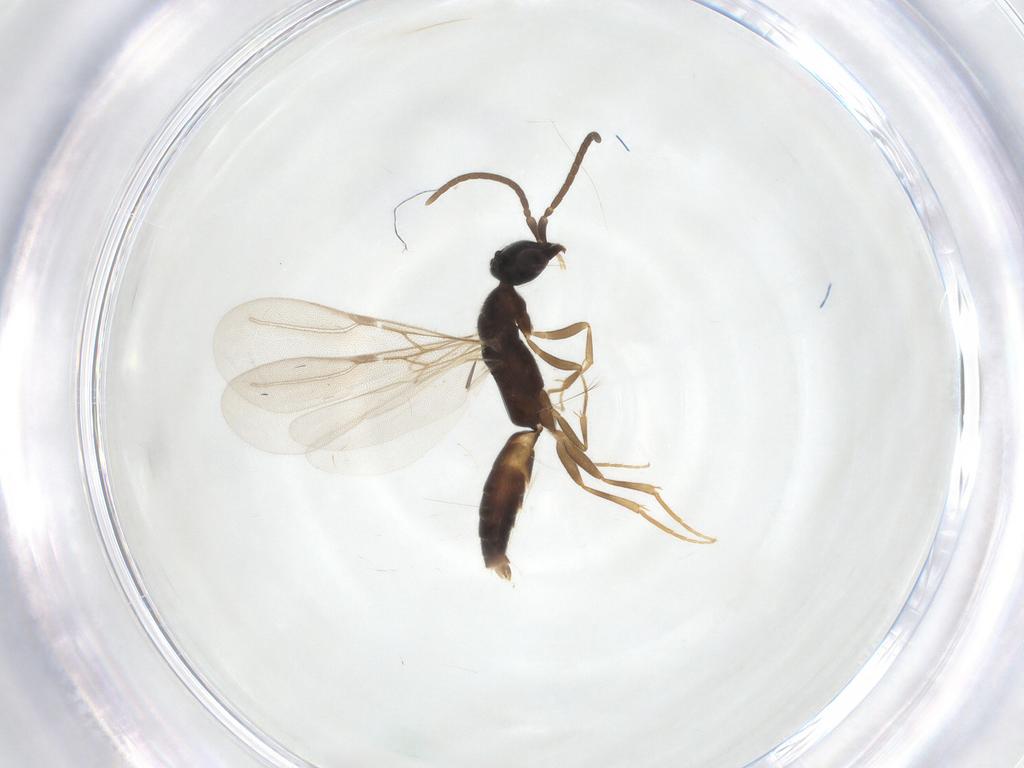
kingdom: Animalia
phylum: Arthropoda
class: Insecta
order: Hymenoptera
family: Bethylidae
